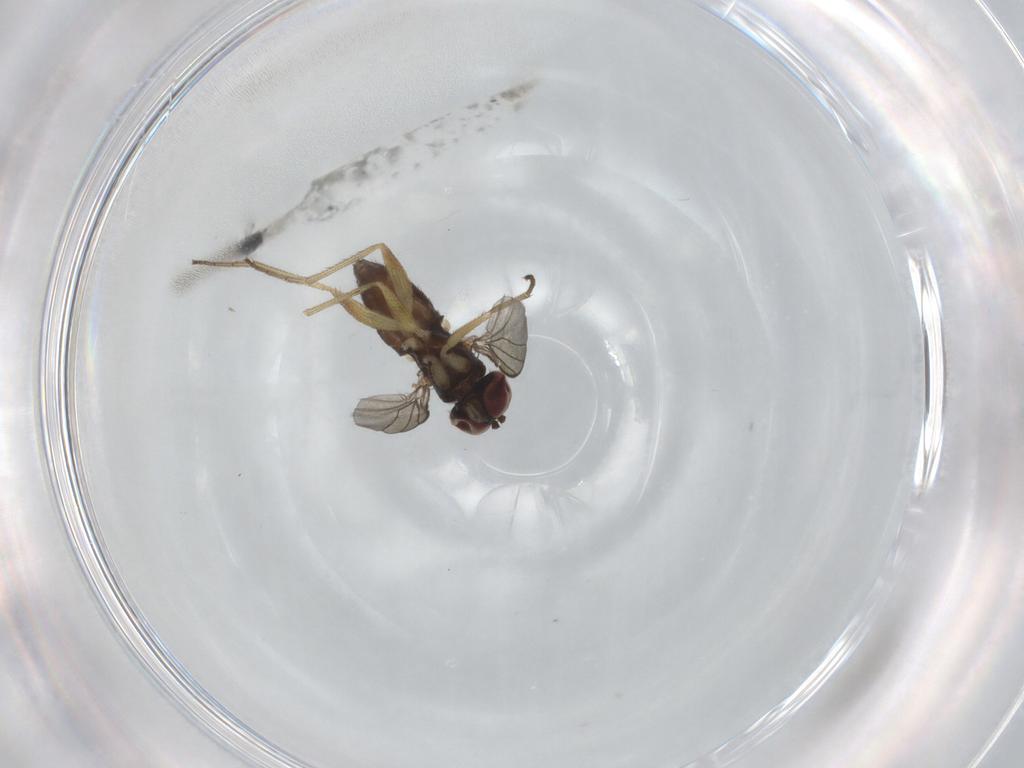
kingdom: Animalia
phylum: Arthropoda
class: Insecta
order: Diptera
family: Dolichopodidae
